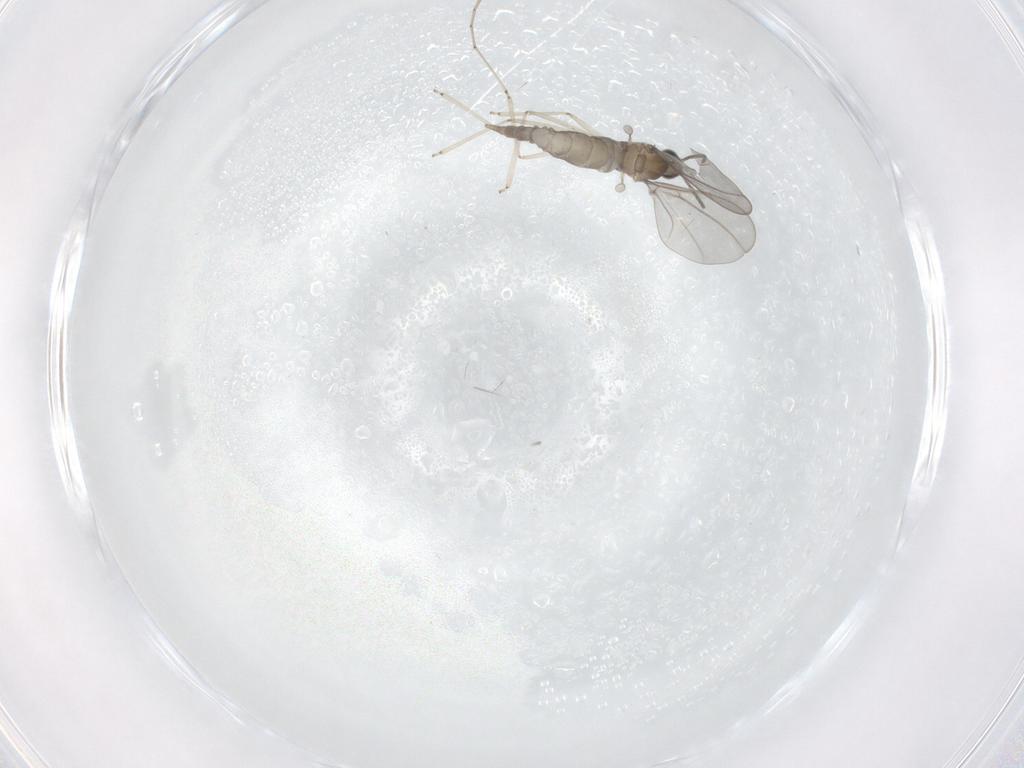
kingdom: Animalia
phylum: Arthropoda
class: Insecta
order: Diptera
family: Cecidomyiidae
